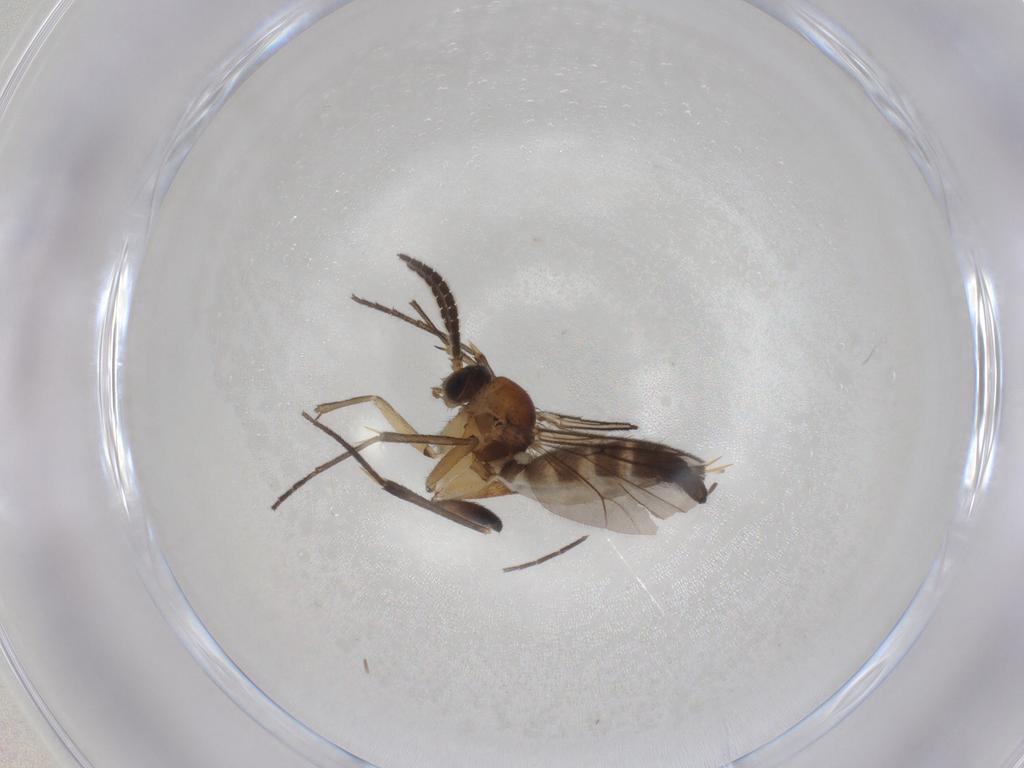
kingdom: Animalia
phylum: Arthropoda
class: Insecta
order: Diptera
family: Mycetophilidae
